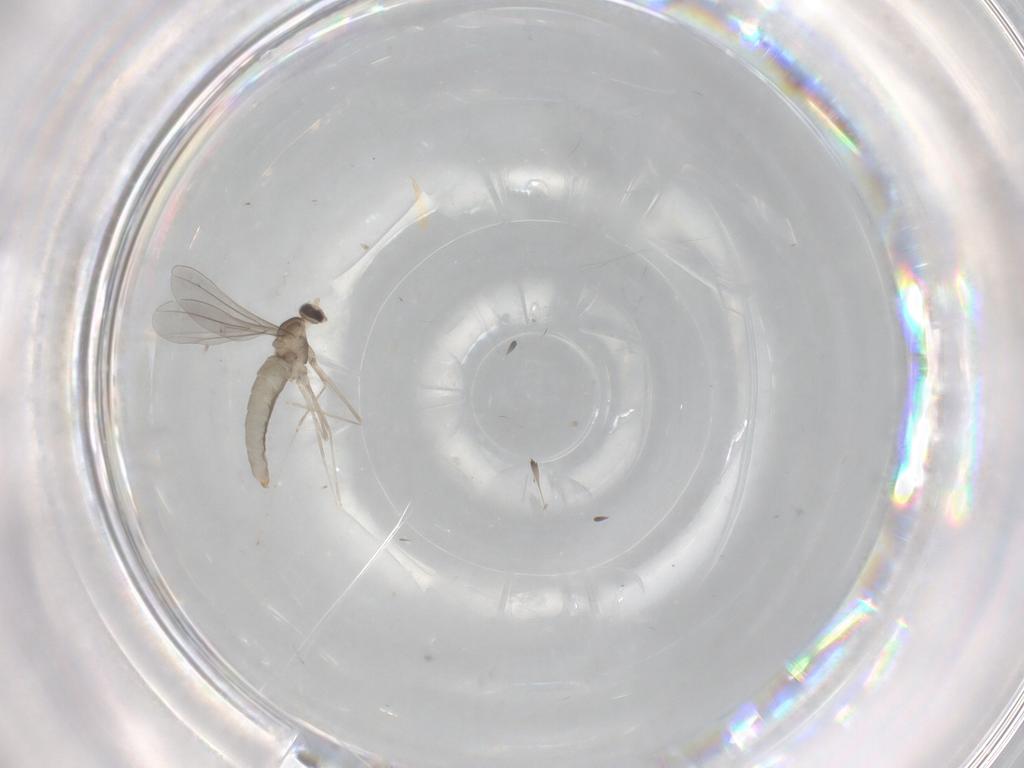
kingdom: Animalia
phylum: Arthropoda
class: Insecta
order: Diptera
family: Cecidomyiidae
